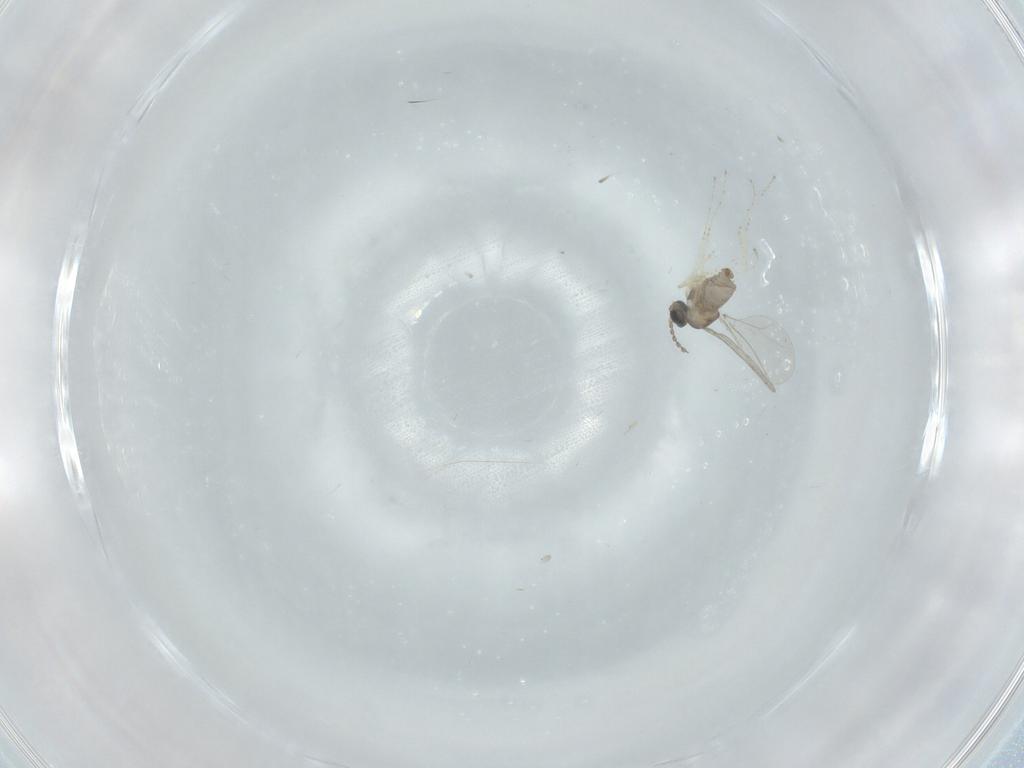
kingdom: Animalia
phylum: Arthropoda
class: Insecta
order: Diptera
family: Cecidomyiidae
